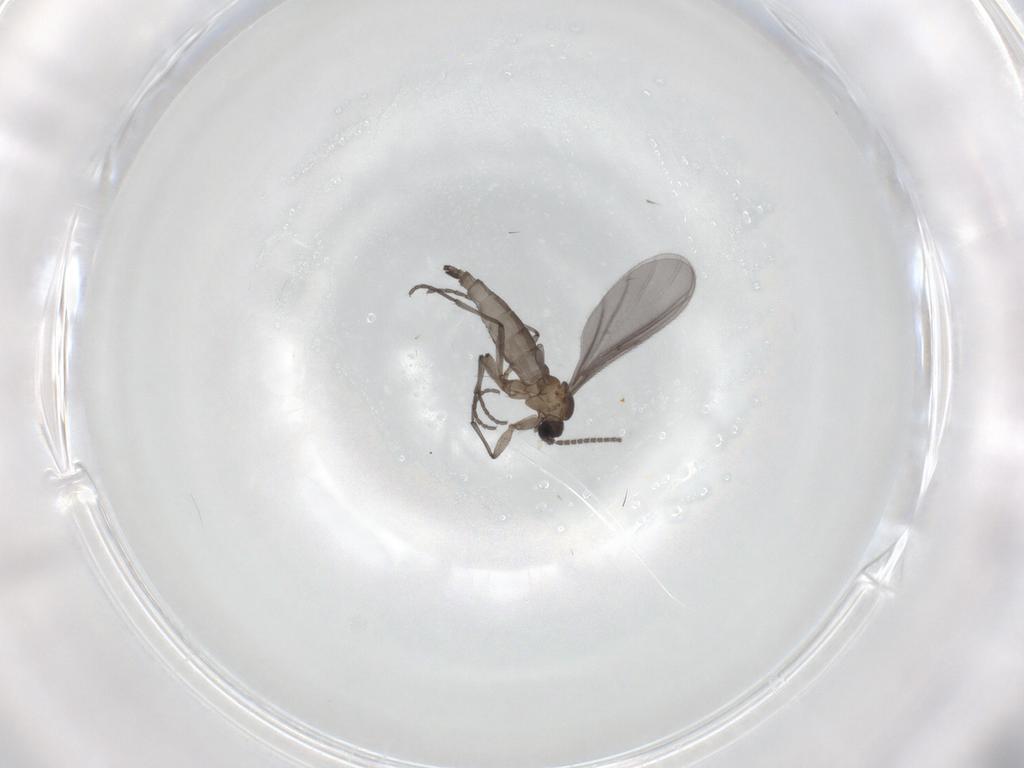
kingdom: Animalia
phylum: Arthropoda
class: Insecta
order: Diptera
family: Sciaridae
